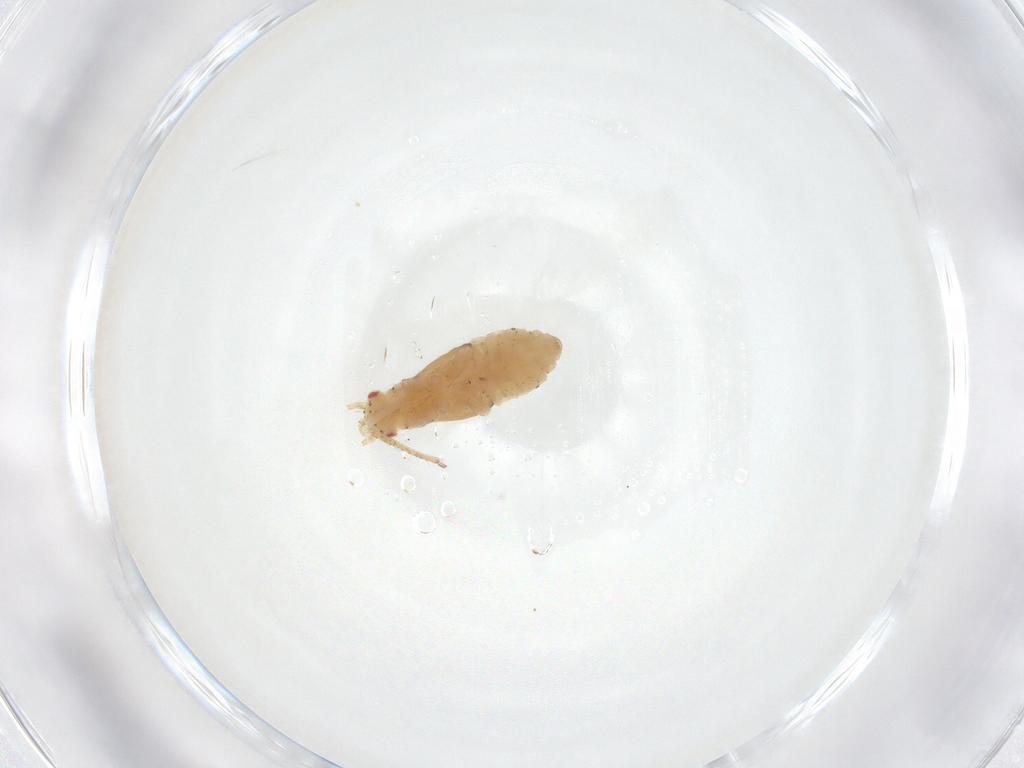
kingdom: Animalia
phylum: Arthropoda
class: Insecta
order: Hemiptera
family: Aphididae
